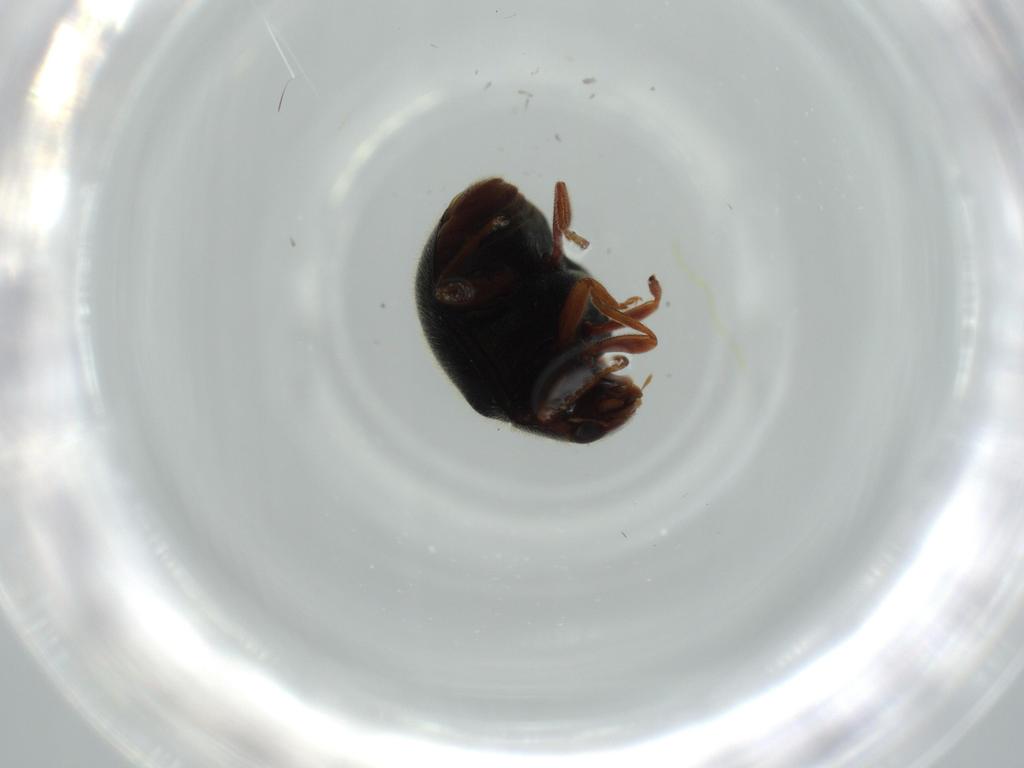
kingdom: Animalia
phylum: Arthropoda
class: Insecta
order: Coleoptera
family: Coccinellidae
